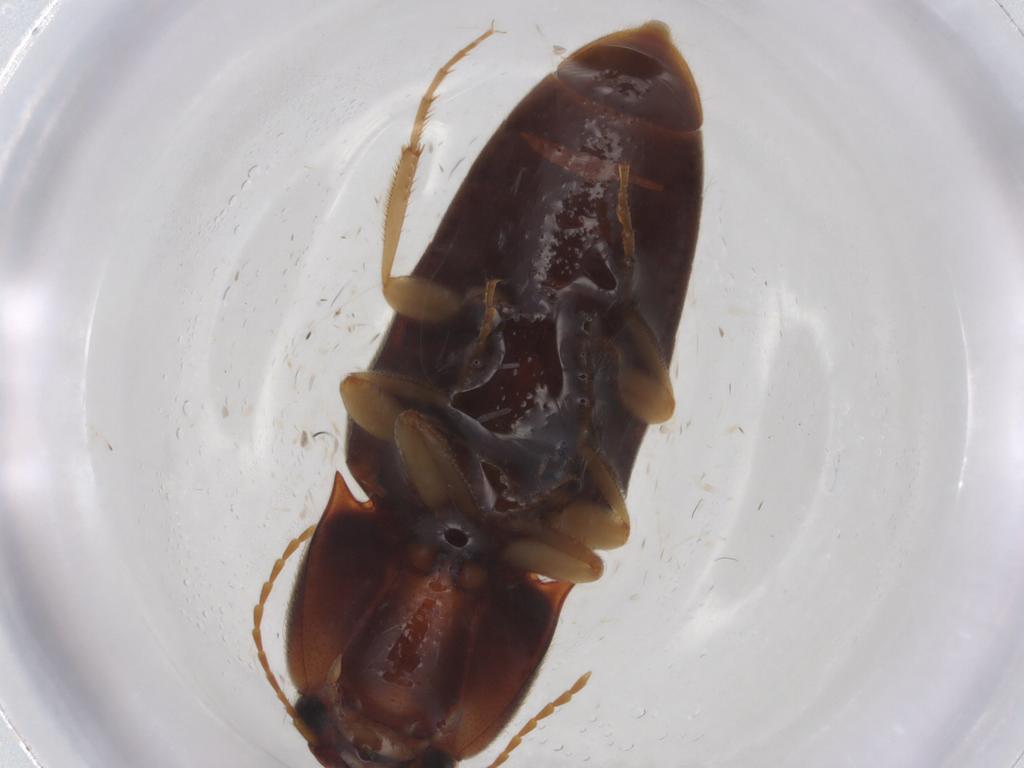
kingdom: Animalia
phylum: Arthropoda
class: Insecta
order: Coleoptera
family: Elateridae
